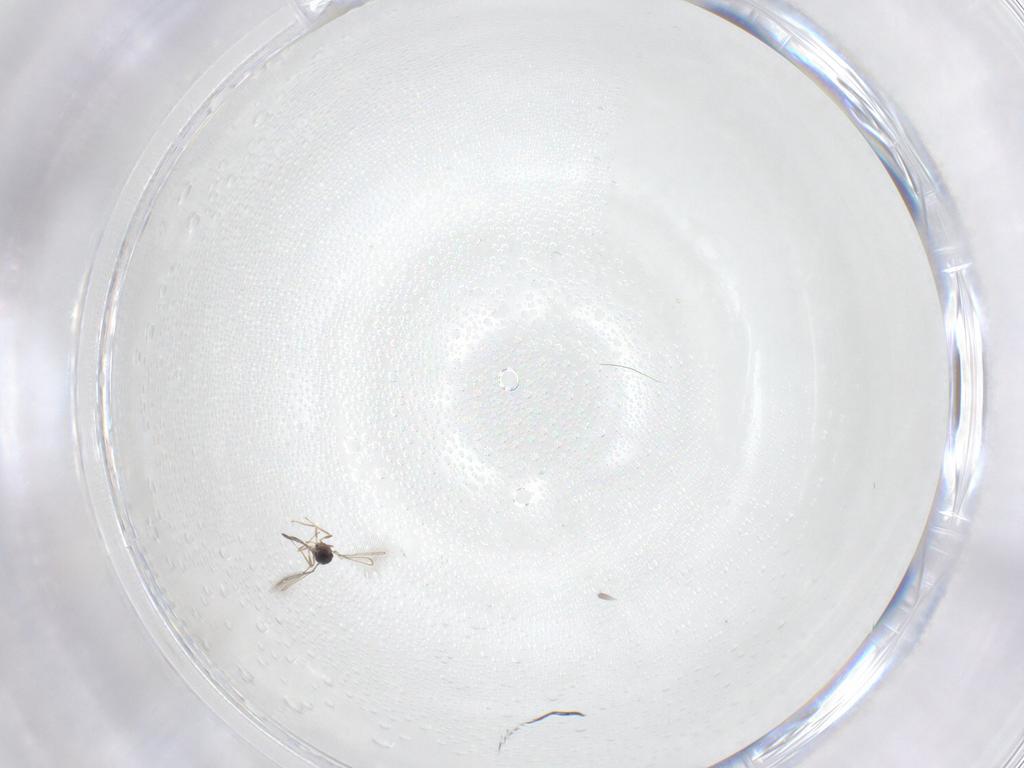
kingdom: Animalia
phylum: Arthropoda
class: Insecta
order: Diptera
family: Cecidomyiidae
